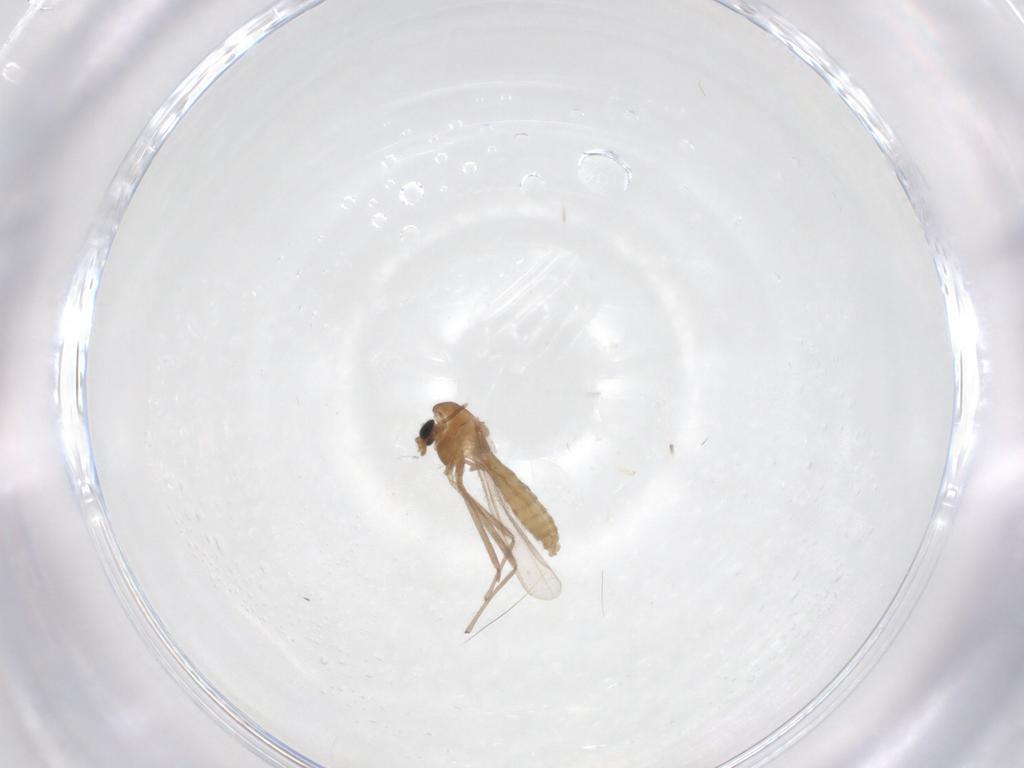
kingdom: Animalia
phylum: Arthropoda
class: Insecta
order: Diptera
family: Chironomidae
